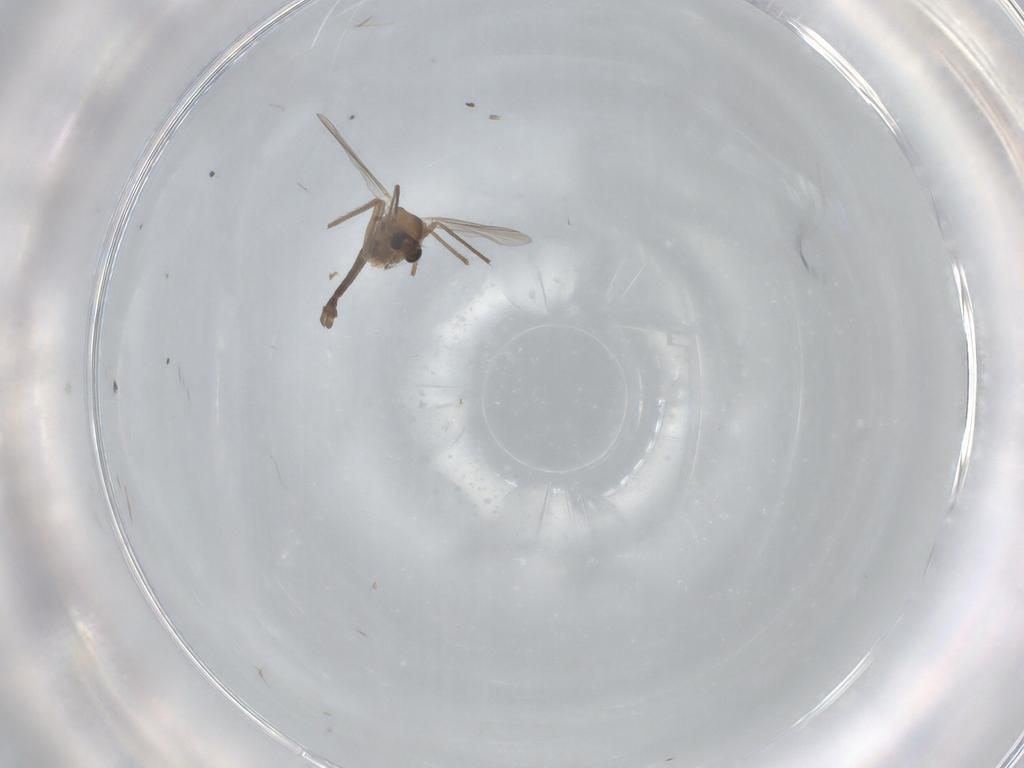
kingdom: Animalia
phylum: Arthropoda
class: Insecta
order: Diptera
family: Chironomidae
